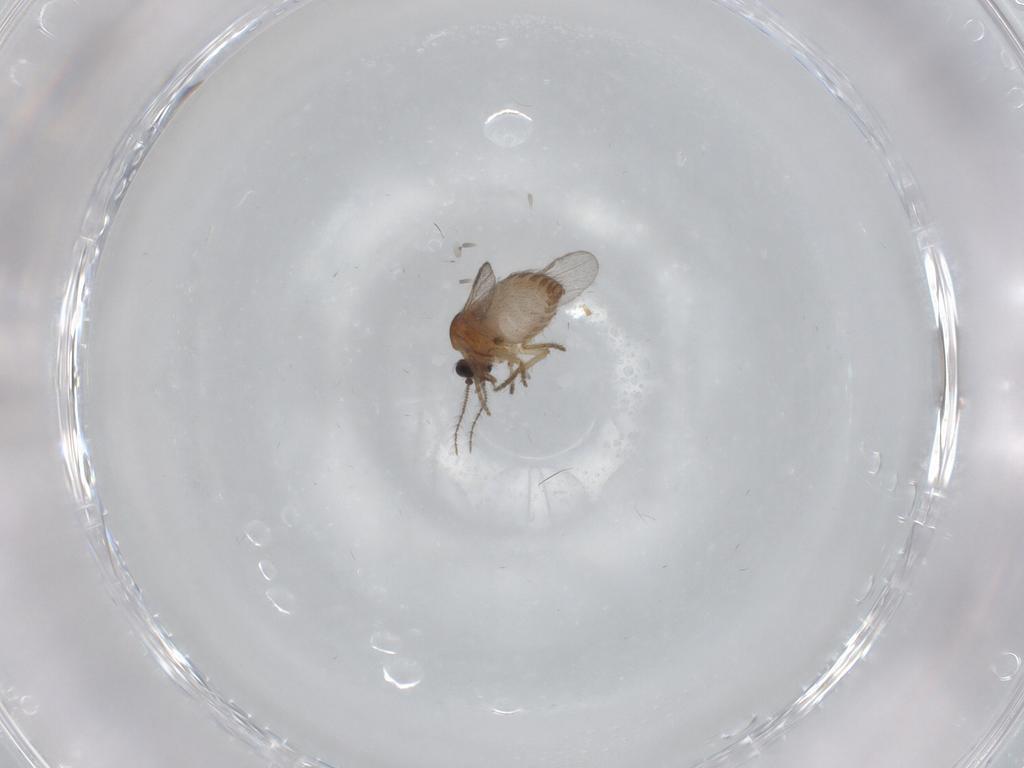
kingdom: Animalia
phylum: Arthropoda
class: Insecta
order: Diptera
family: Ceratopogonidae
